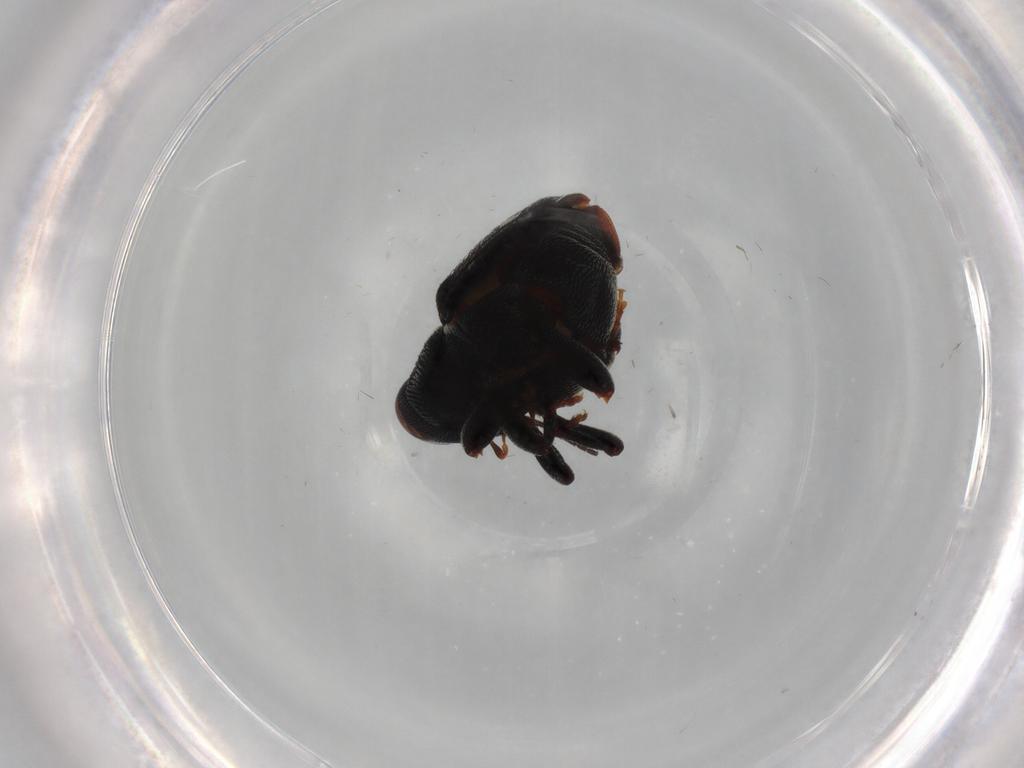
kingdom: Animalia
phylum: Arthropoda
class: Insecta
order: Coleoptera
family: Curculionidae
